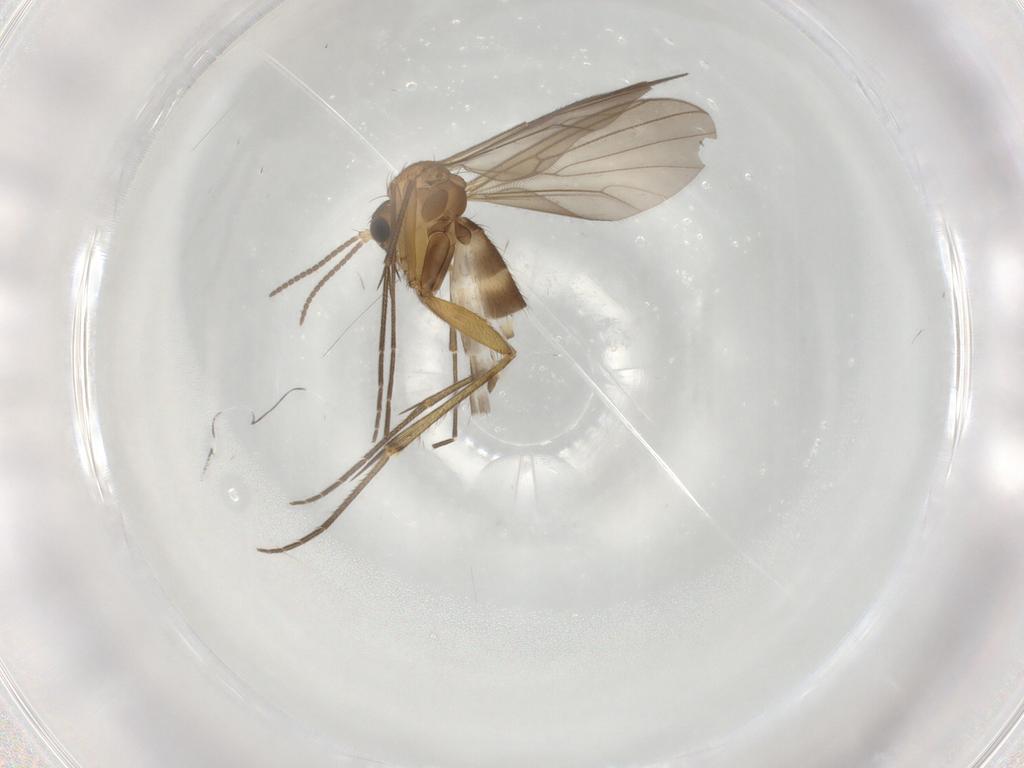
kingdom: Animalia
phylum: Arthropoda
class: Insecta
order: Diptera
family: Mycetophilidae
